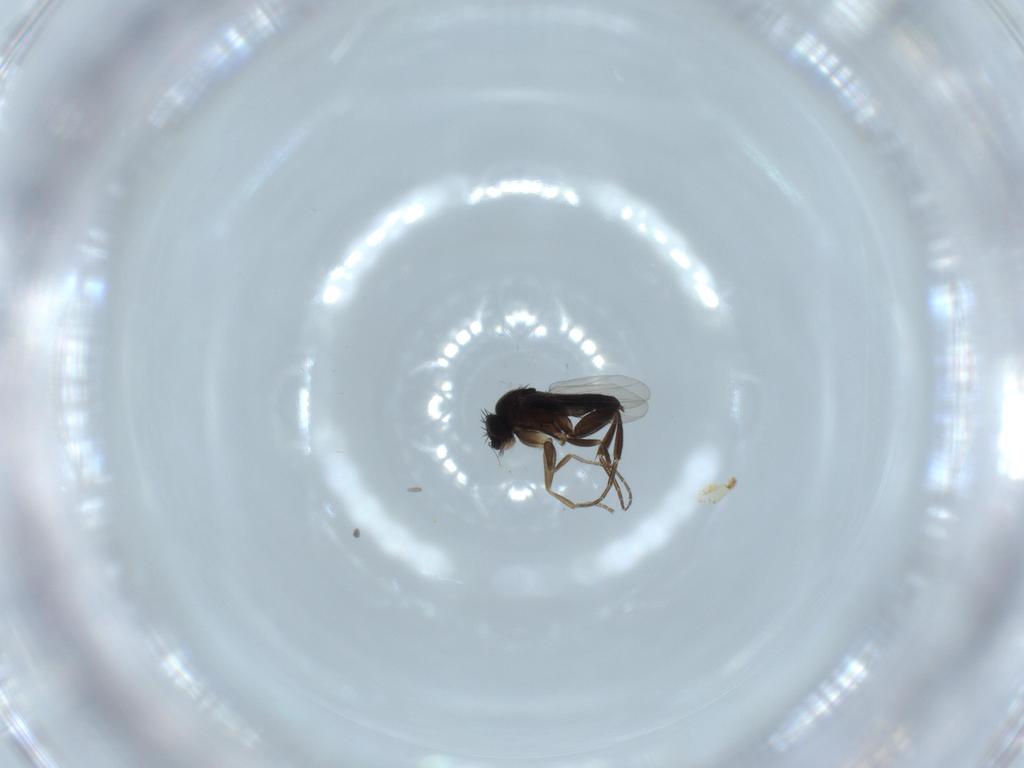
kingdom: Animalia
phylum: Arthropoda
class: Insecta
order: Diptera
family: Phoridae
